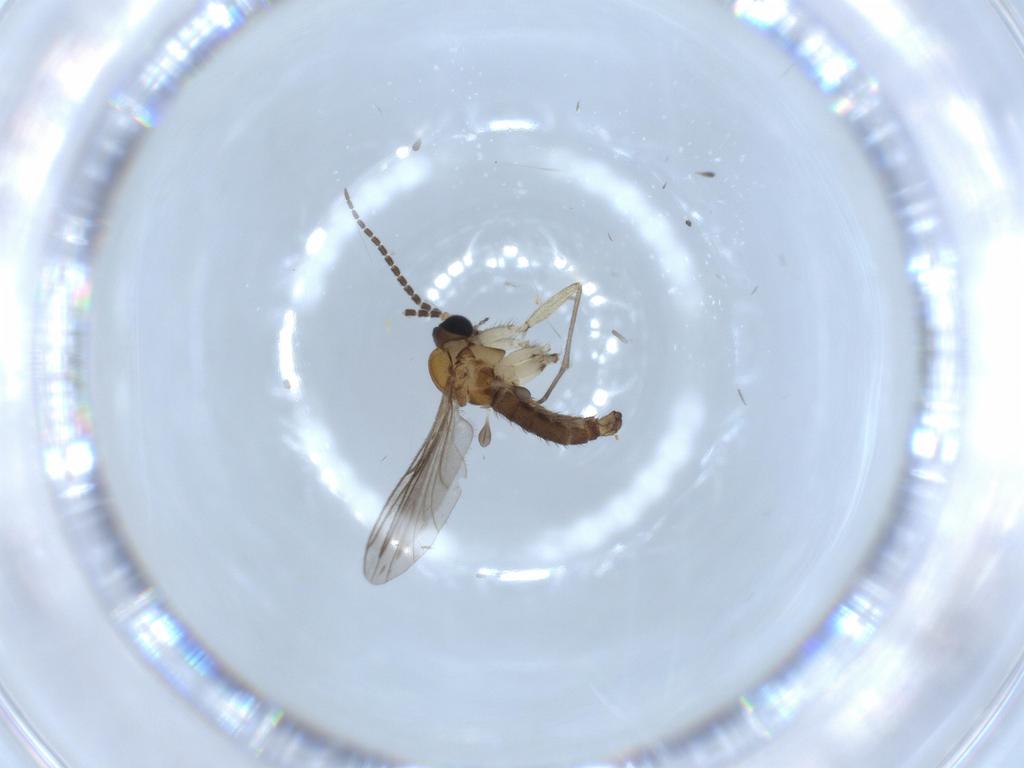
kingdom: Animalia
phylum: Arthropoda
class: Insecta
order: Diptera
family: Sciaridae
